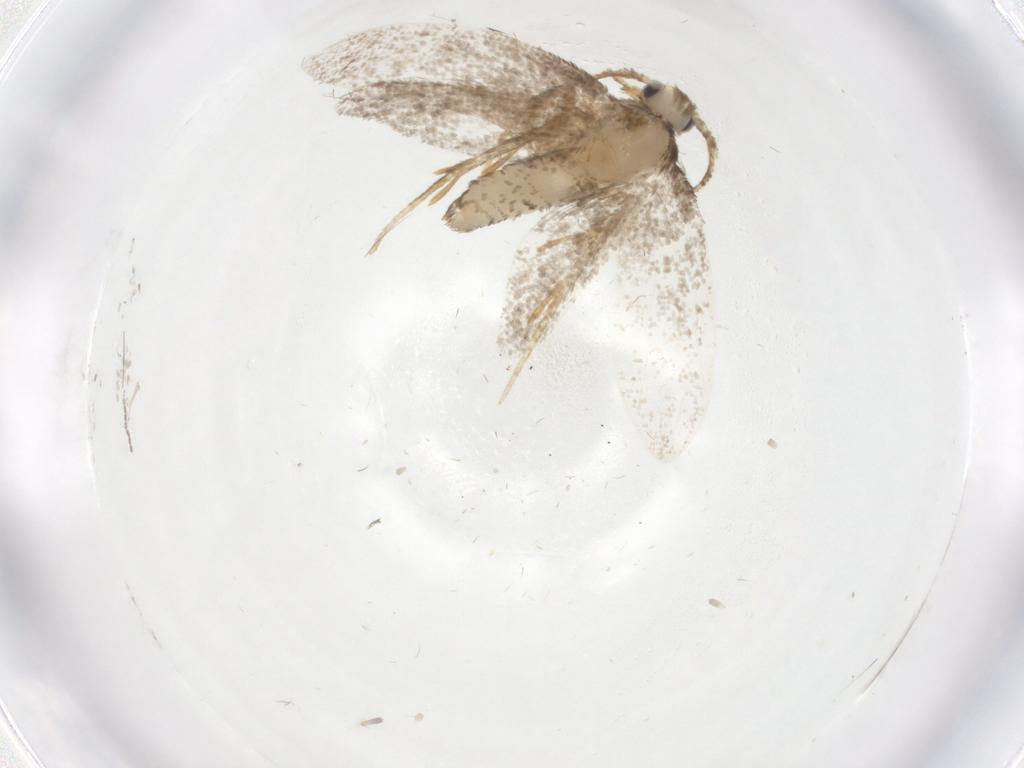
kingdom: Animalia
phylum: Arthropoda
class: Insecta
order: Lepidoptera
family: Psychidae
